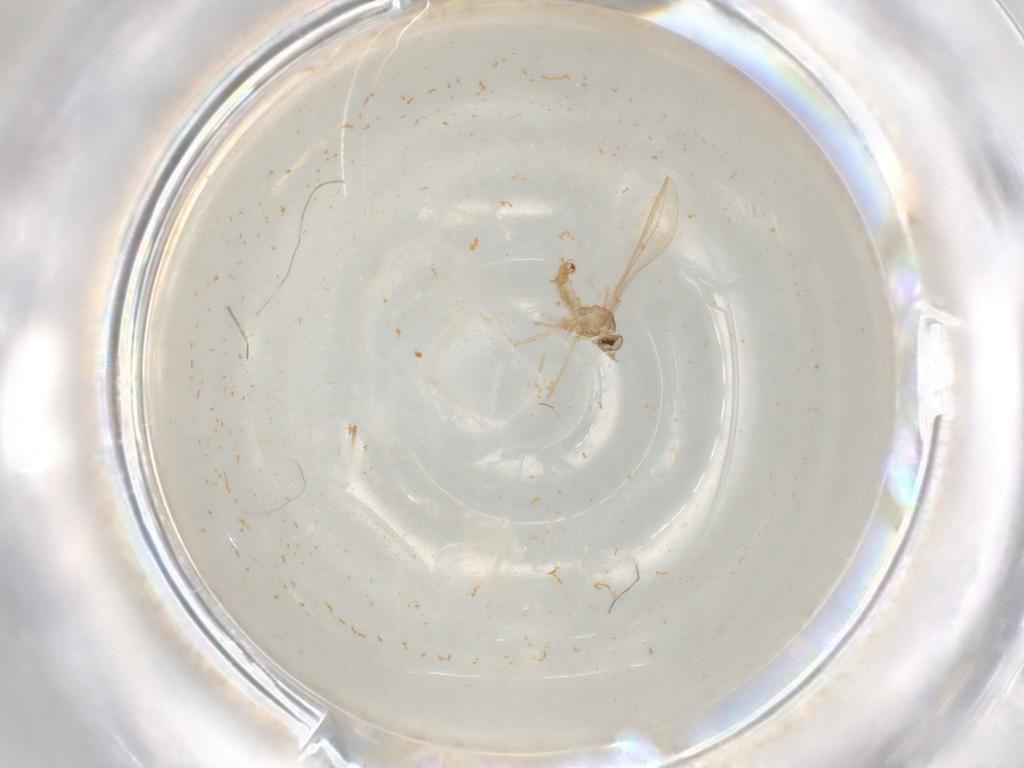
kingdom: Animalia
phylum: Arthropoda
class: Insecta
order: Diptera
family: Cecidomyiidae
